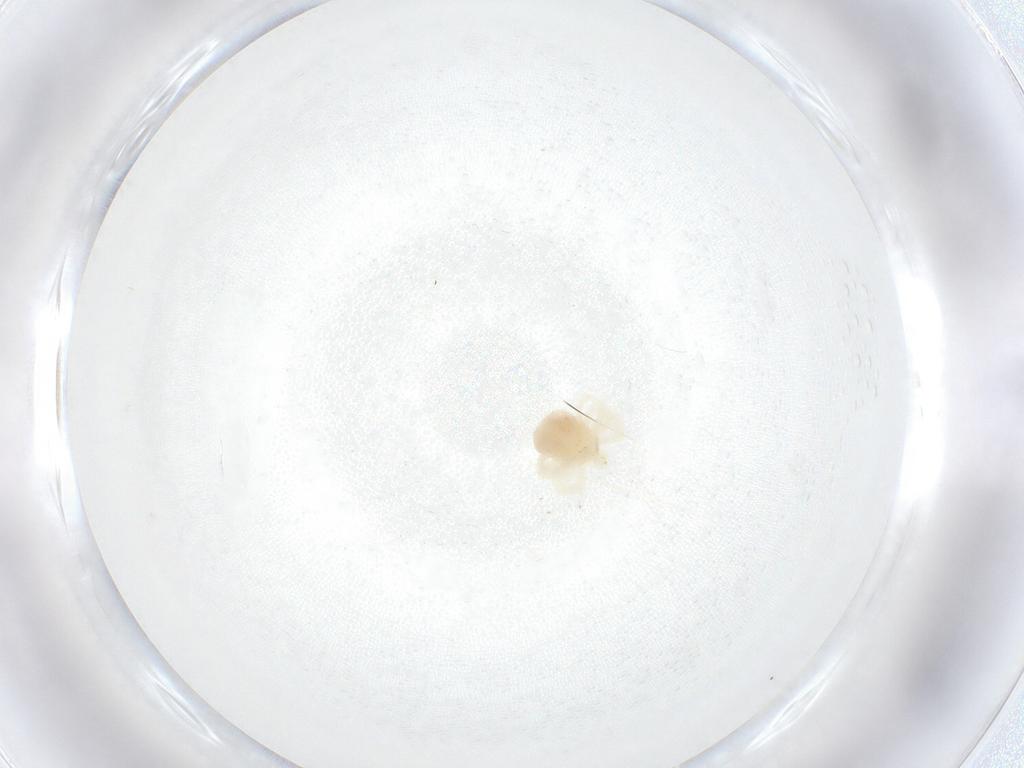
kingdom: Animalia
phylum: Arthropoda
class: Arachnida
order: Trombidiformes
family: Anystidae
